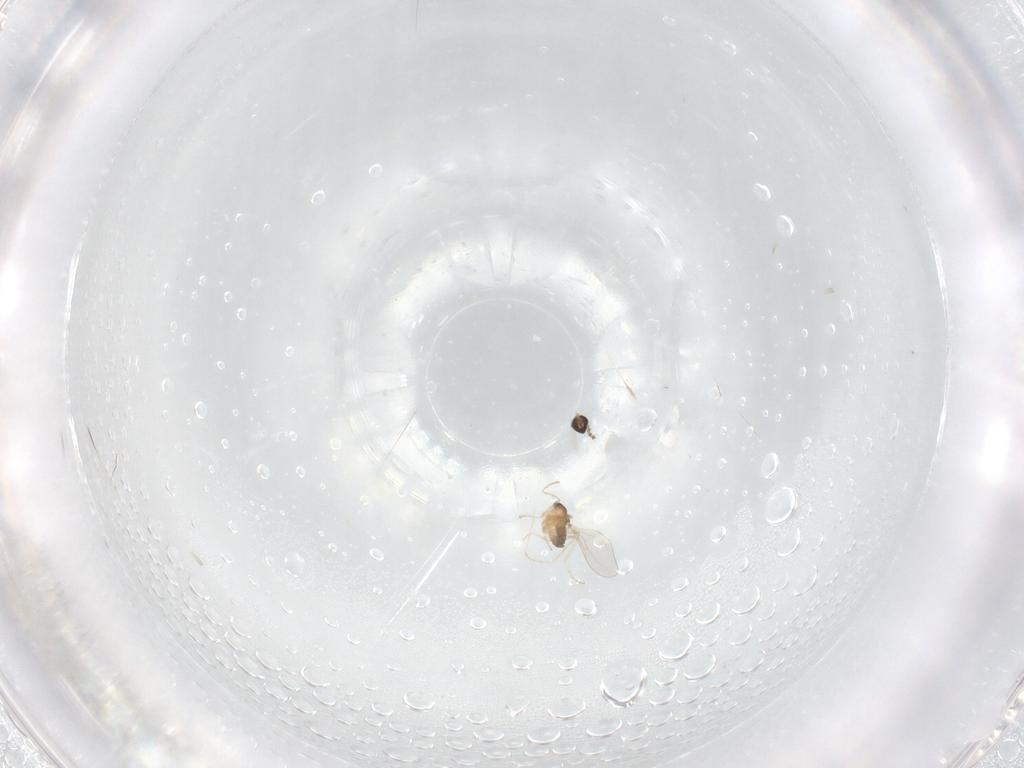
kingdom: Animalia
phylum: Arthropoda
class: Insecta
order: Diptera
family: Cecidomyiidae
